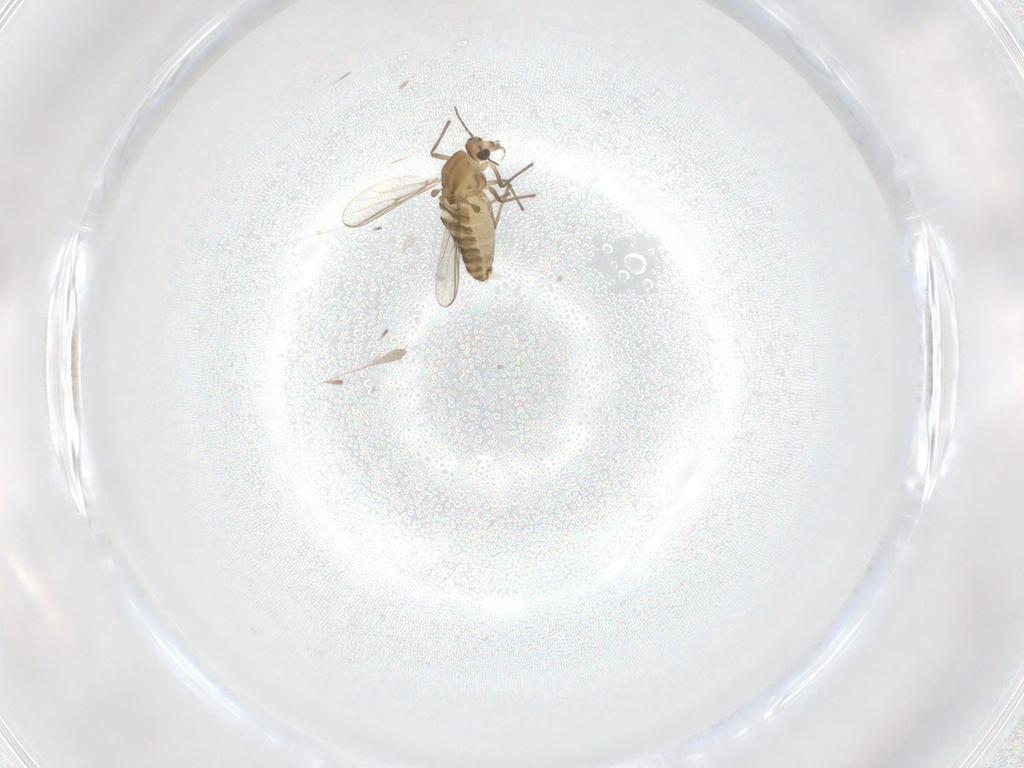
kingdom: Animalia
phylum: Arthropoda
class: Insecta
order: Diptera
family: Chironomidae
